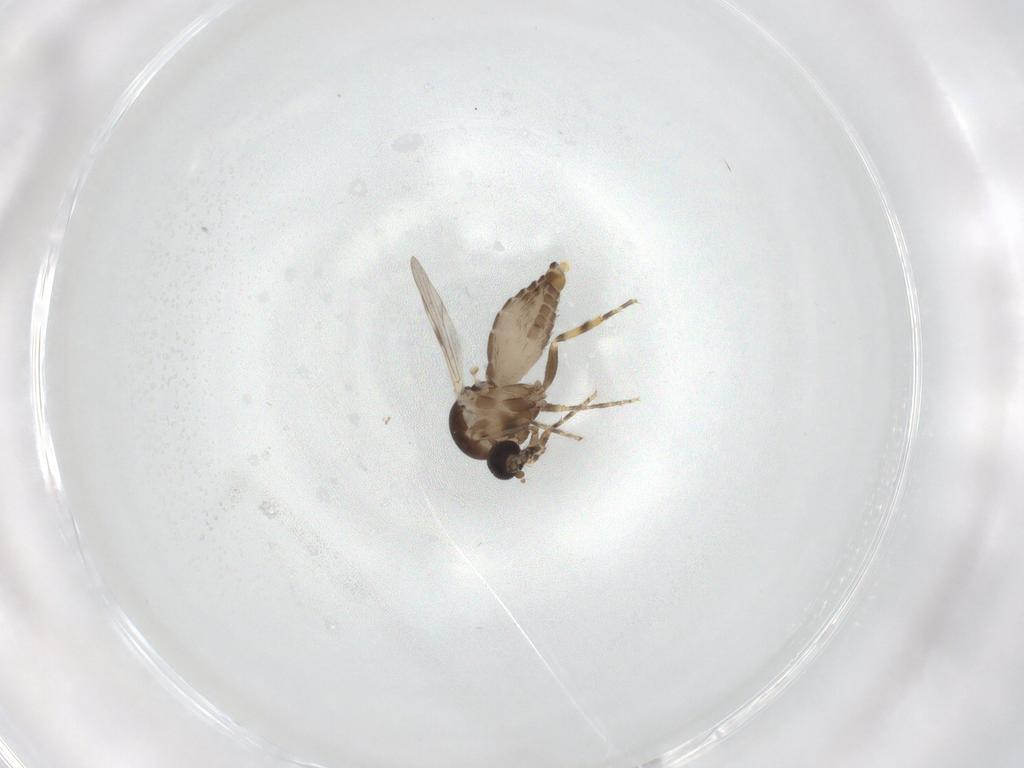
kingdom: Animalia
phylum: Arthropoda
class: Insecta
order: Diptera
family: Ceratopogonidae
